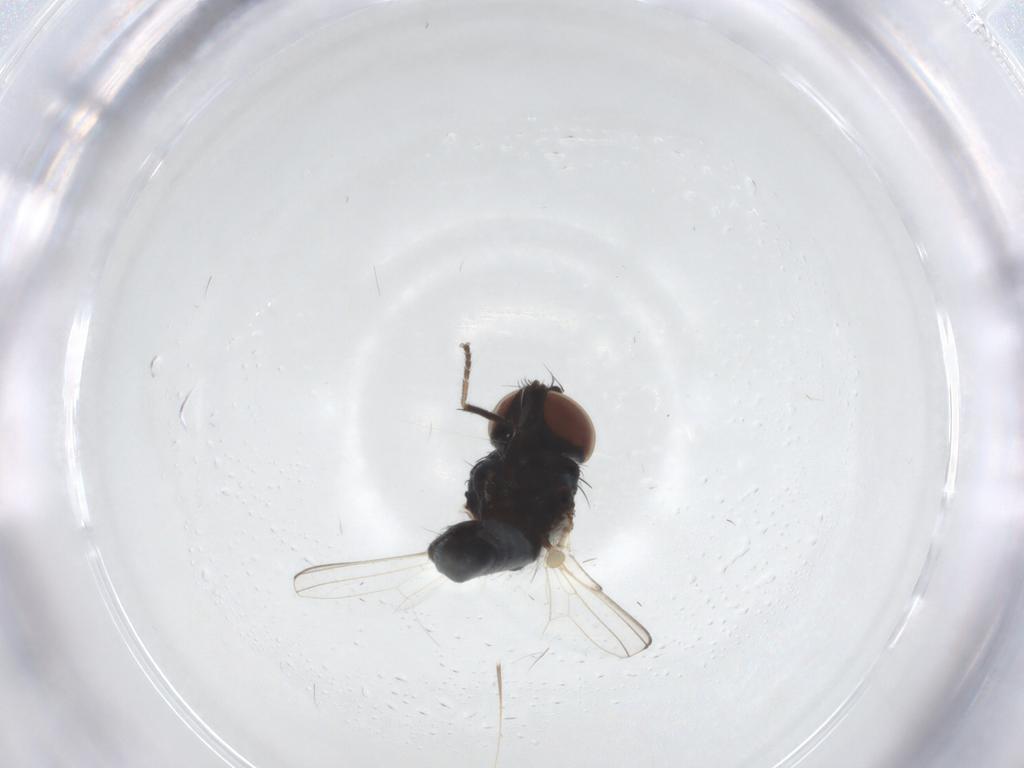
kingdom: Animalia
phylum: Arthropoda
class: Insecta
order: Diptera
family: Milichiidae
